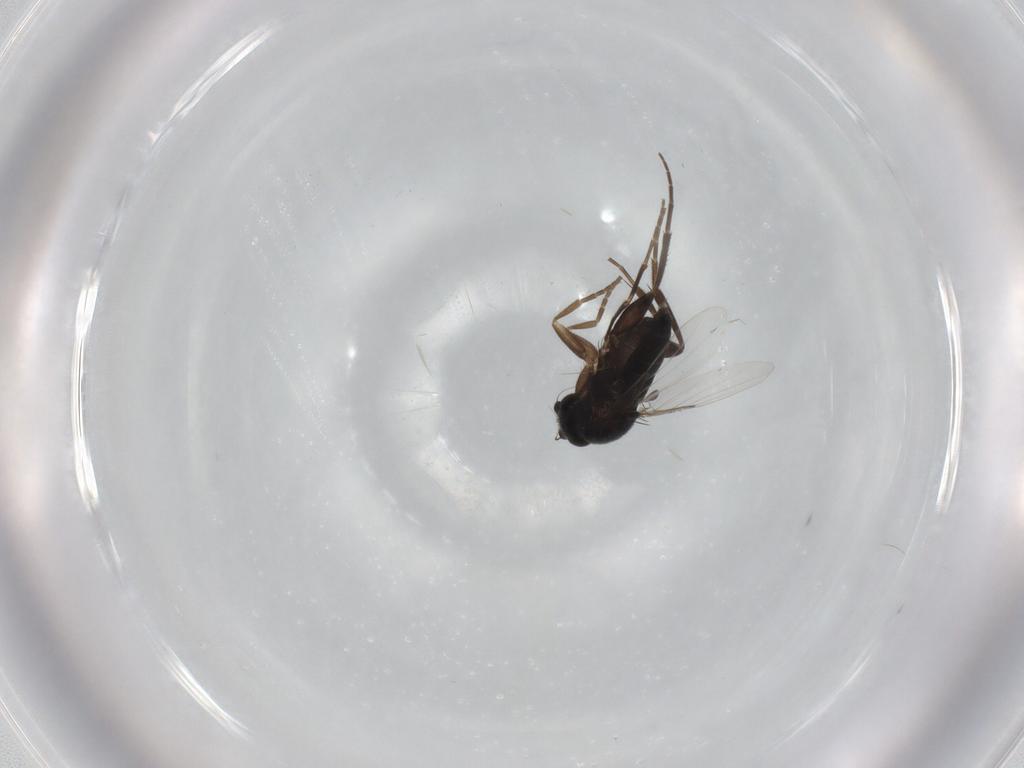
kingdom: Animalia
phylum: Arthropoda
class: Insecta
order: Diptera
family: Phoridae
